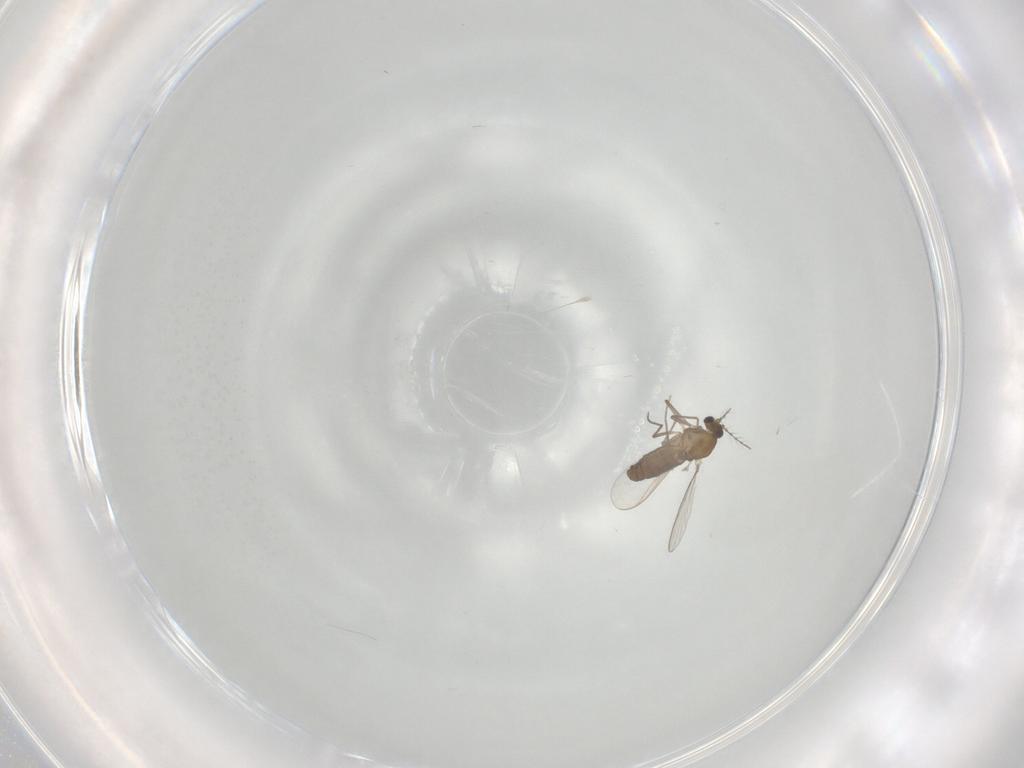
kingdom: Animalia
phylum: Arthropoda
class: Insecta
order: Diptera
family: Chironomidae
